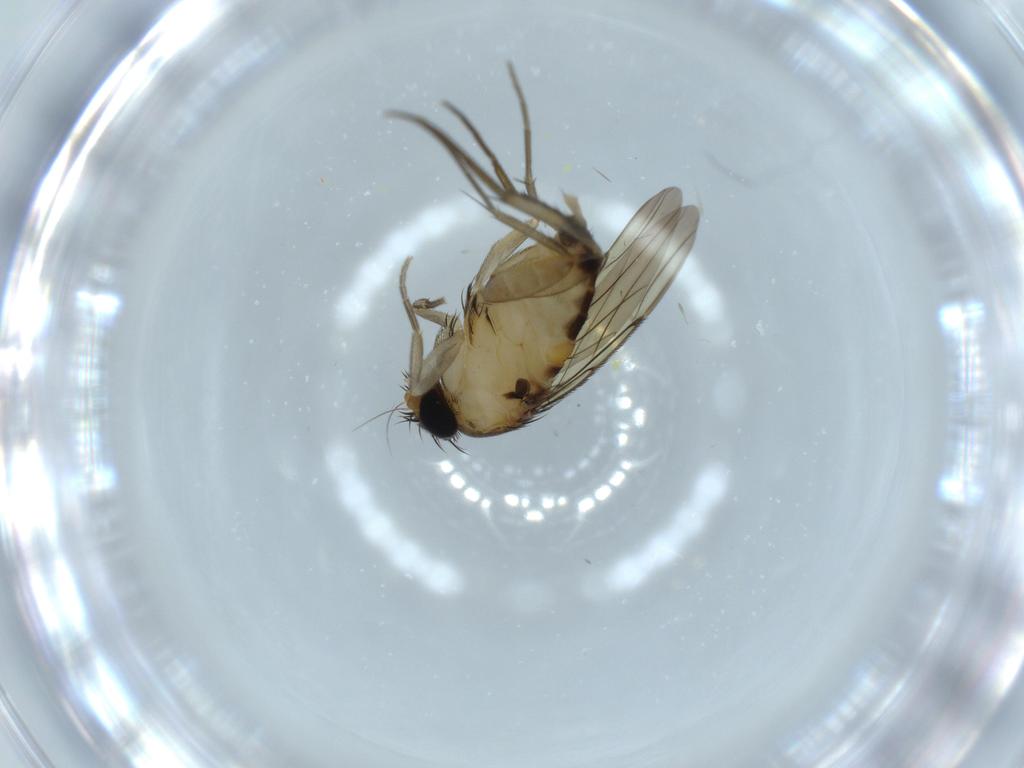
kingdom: Animalia
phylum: Arthropoda
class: Insecta
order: Diptera
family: Phoridae
